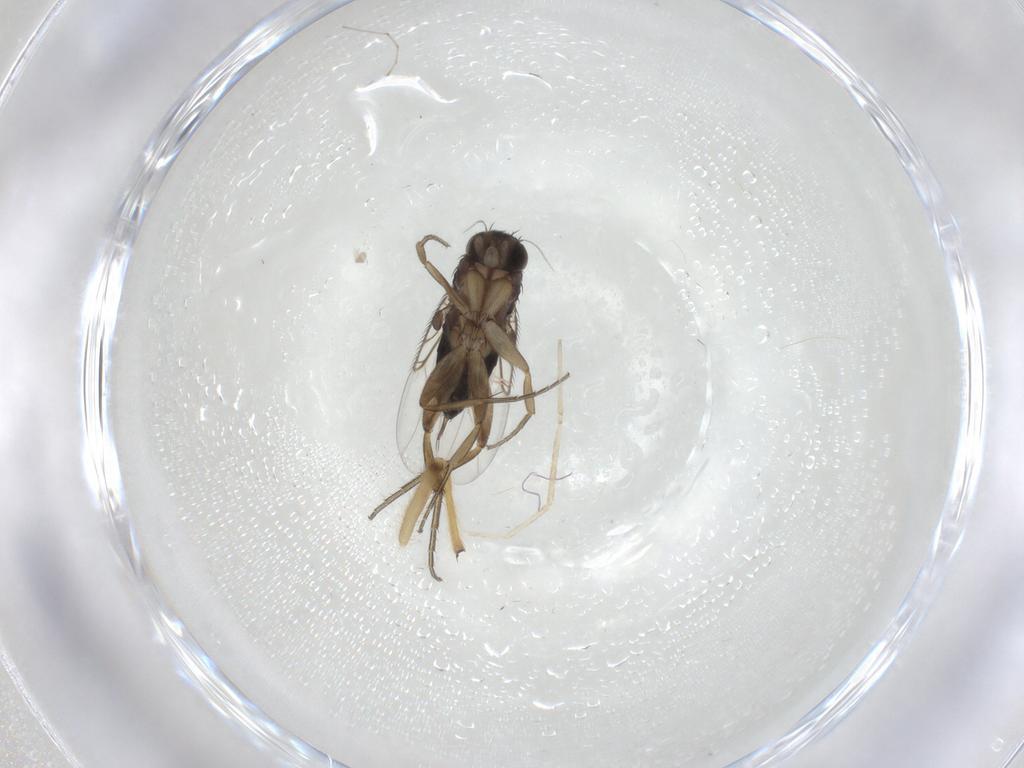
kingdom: Animalia
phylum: Arthropoda
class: Insecta
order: Diptera
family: Chironomidae
